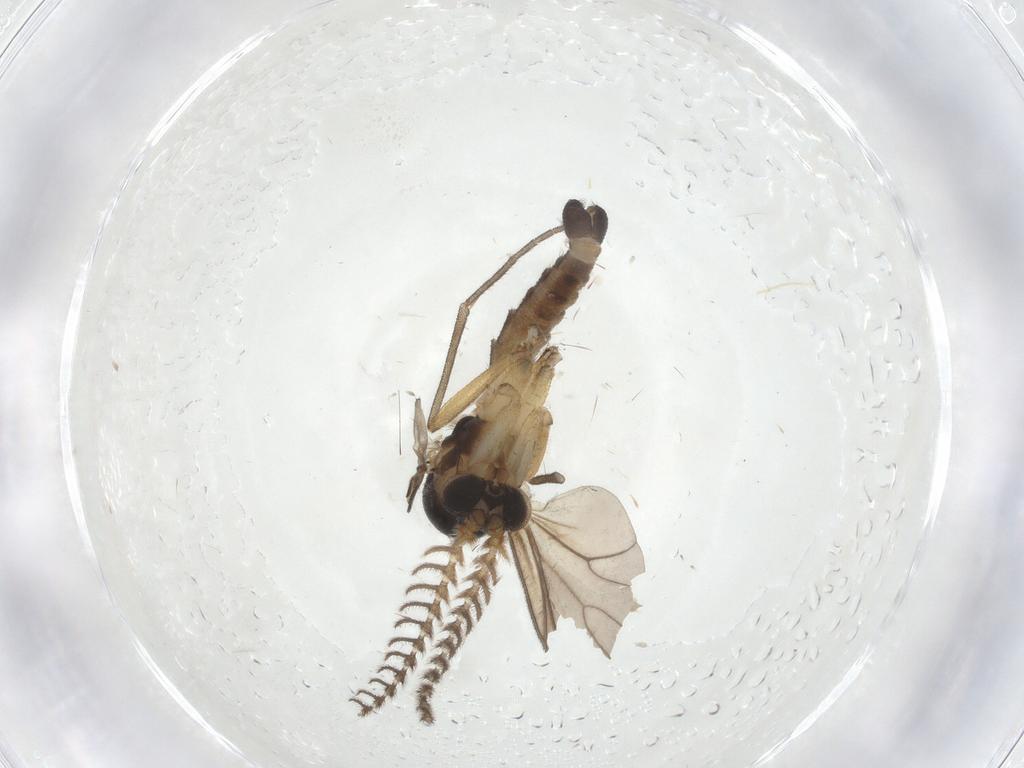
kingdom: Animalia
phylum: Arthropoda
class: Insecta
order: Diptera
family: Mycetophilidae
